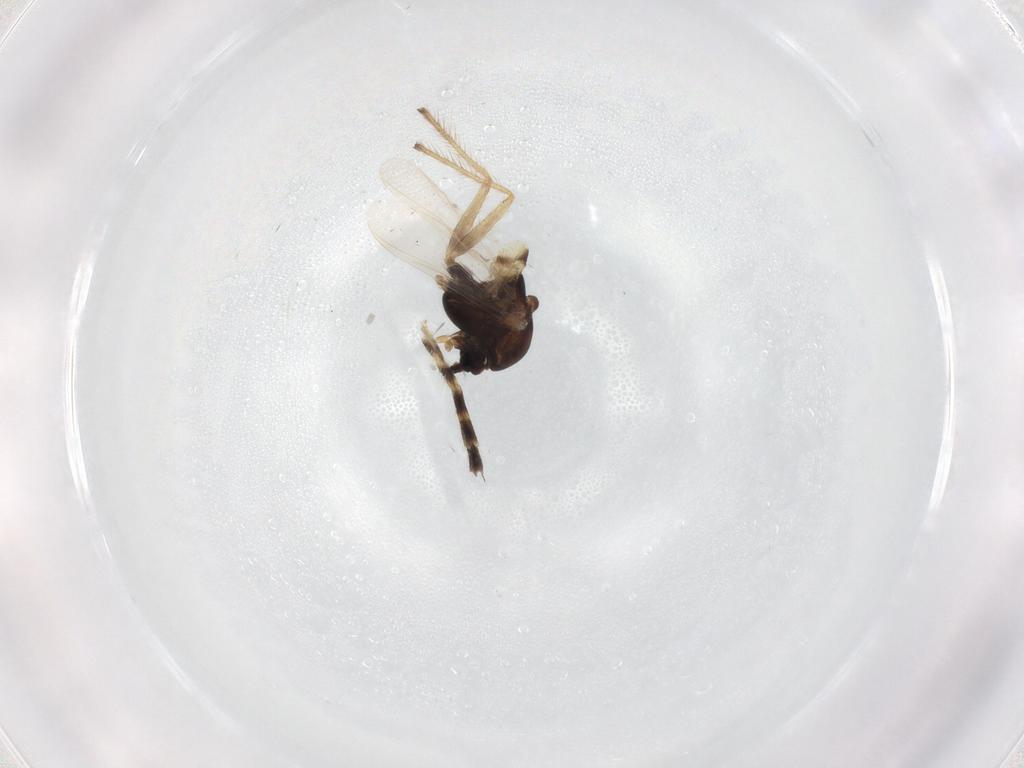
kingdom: Animalia
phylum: Arthropoda
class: Insecta
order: Diptera
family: Chironomidae
